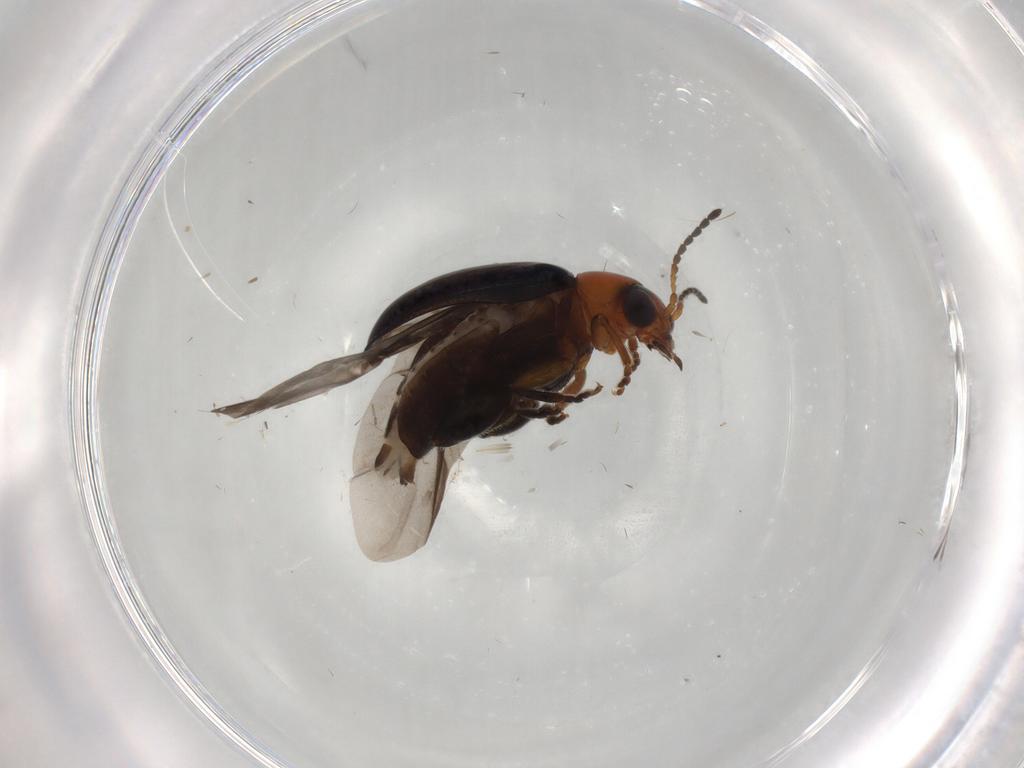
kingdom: Animalia
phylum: Arthropoda
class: Insecta
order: Coleoptera
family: Chrysomelidae
